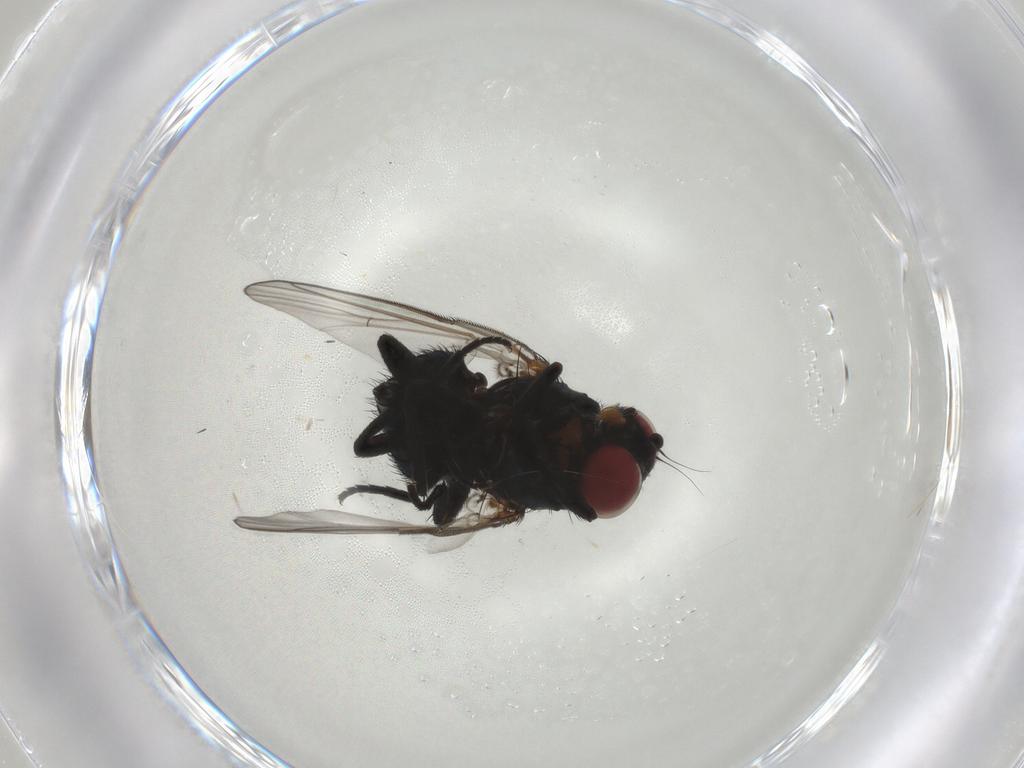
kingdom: Animalia
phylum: Arthropoda
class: Insecta
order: Diptera
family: Agromyzidae
